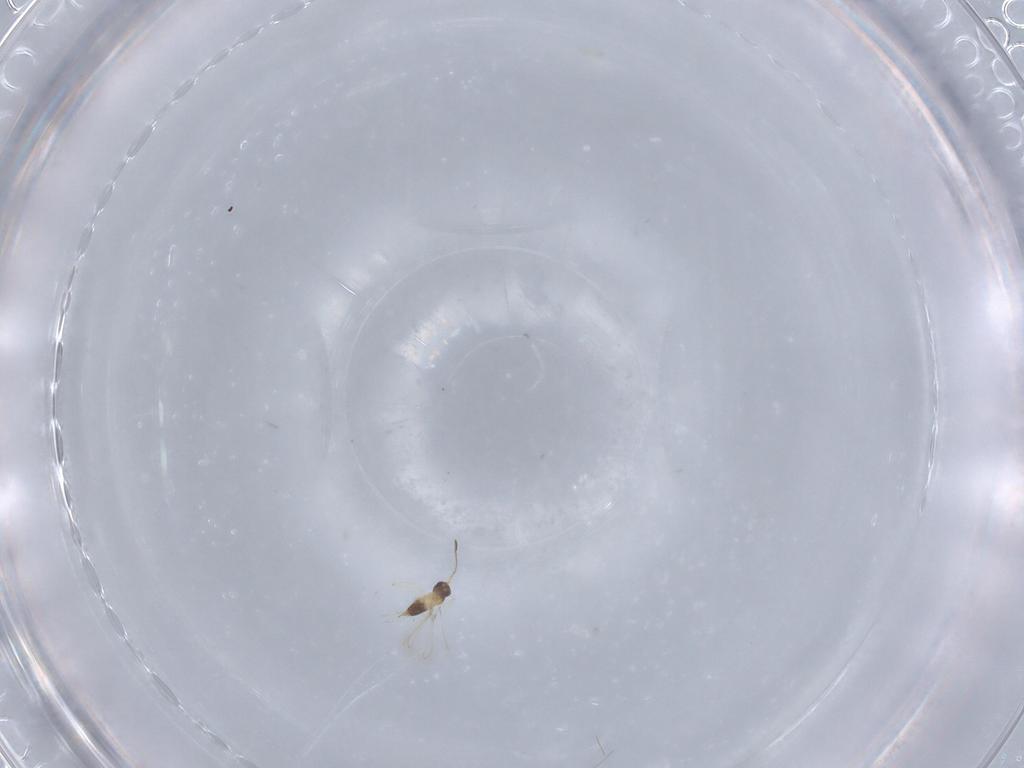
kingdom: Animalia
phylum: Arthropoda
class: Insecta
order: Hymenoptera
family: Mymaridae
